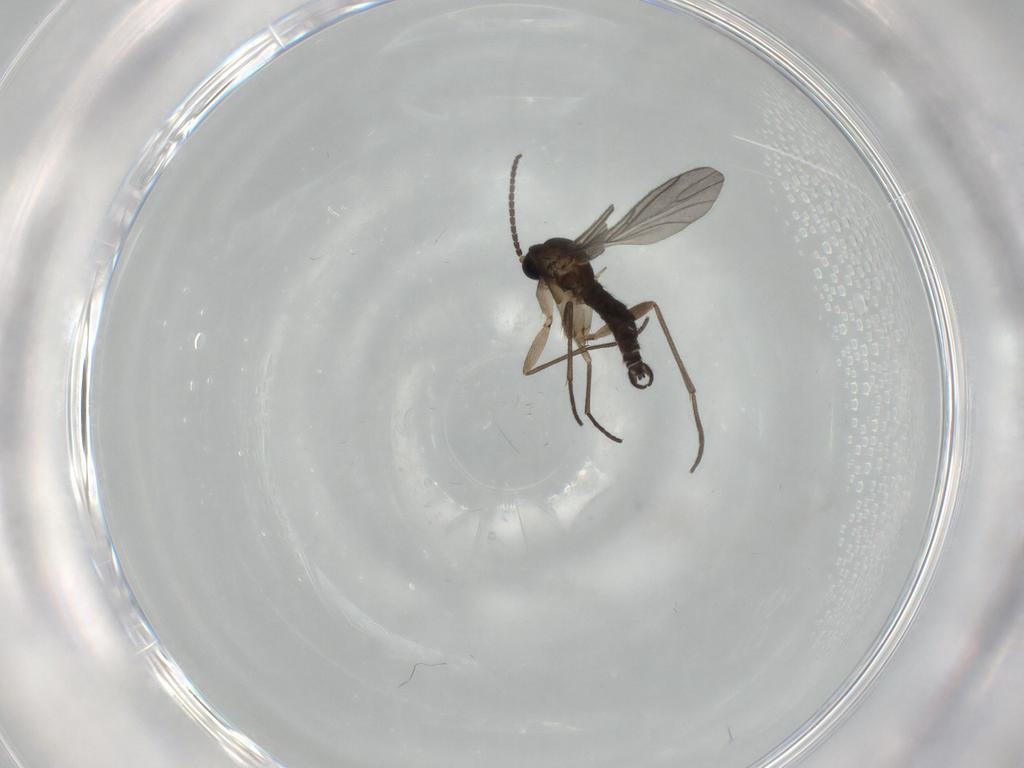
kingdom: Animalia
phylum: Arthropoda
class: Insecta
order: Diptera
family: Sciaridae
